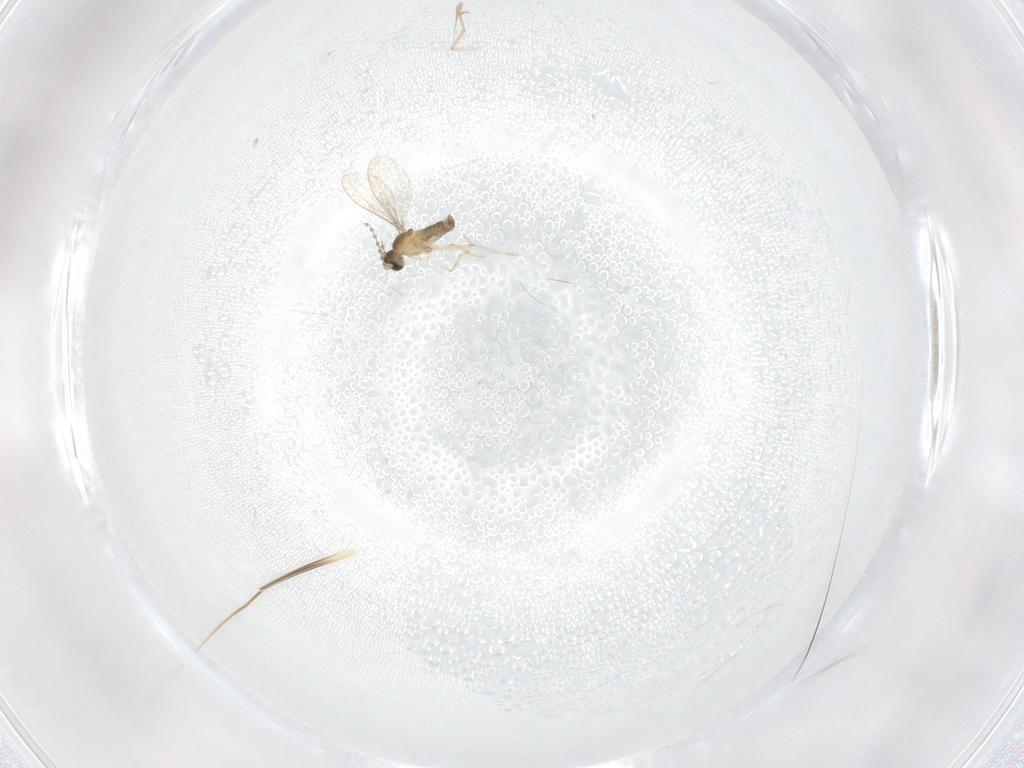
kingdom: Animalia
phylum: Arthropoda
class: Insecta
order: Diptera
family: Cecidomyiidae
